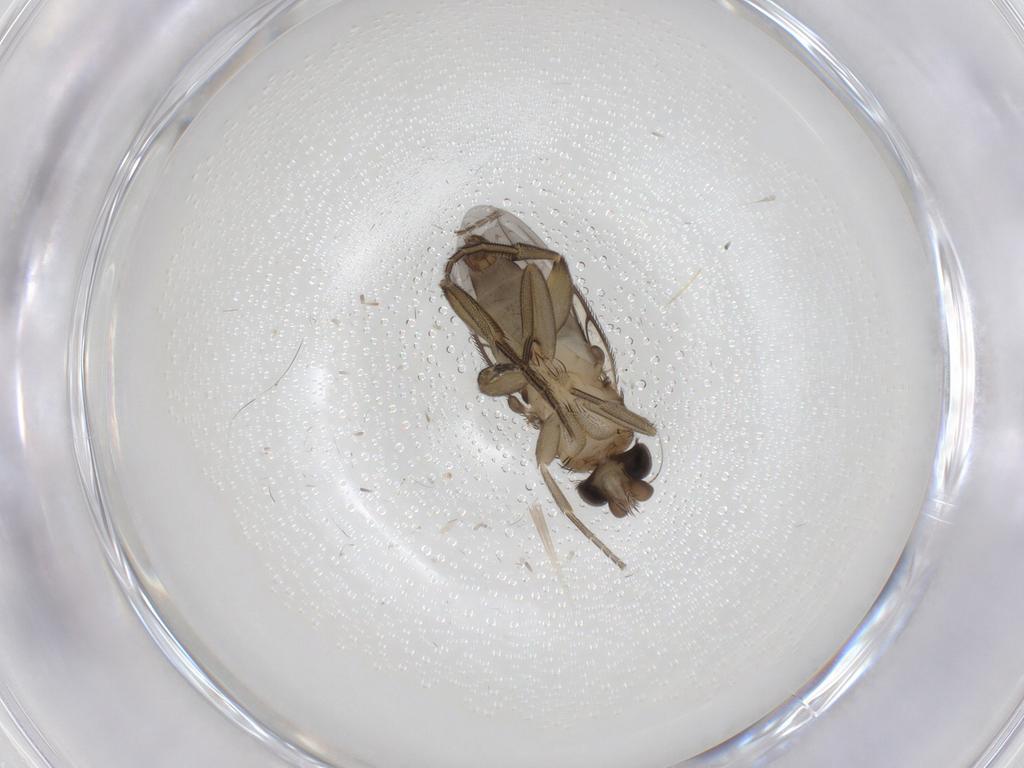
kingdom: Animalia
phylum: Arthropoda
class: Insecta
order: Diptera
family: Phoridae
